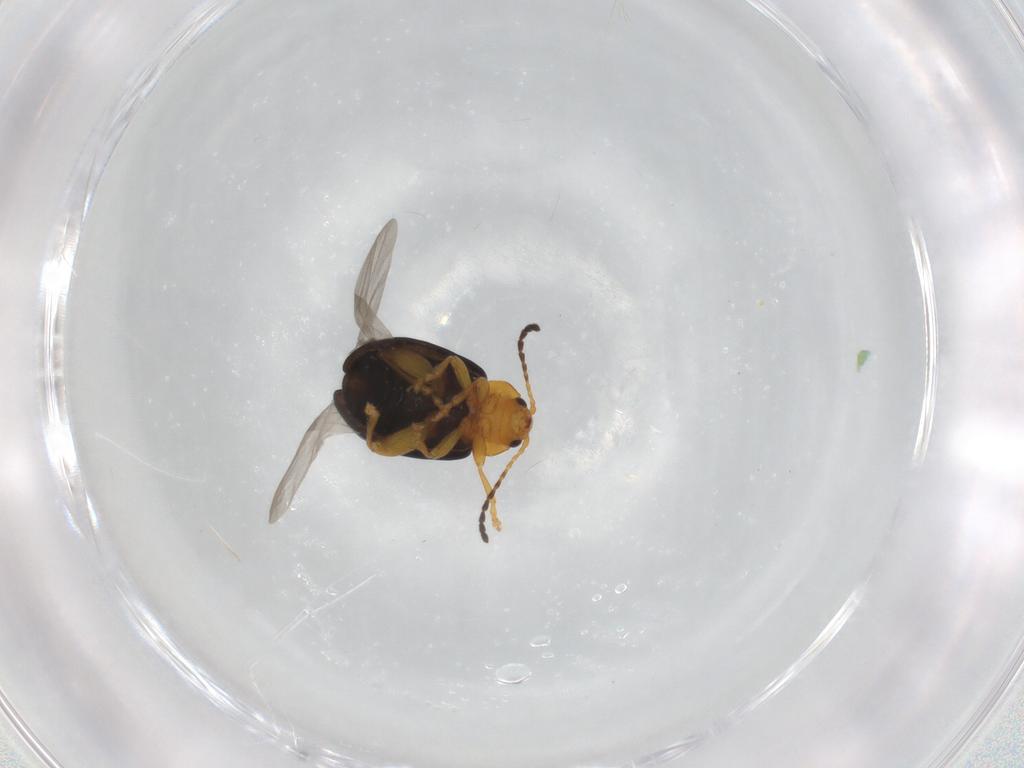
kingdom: Animalia
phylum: Arthropoda
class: Insecta
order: Coleoptera
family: Chrysomelidae
